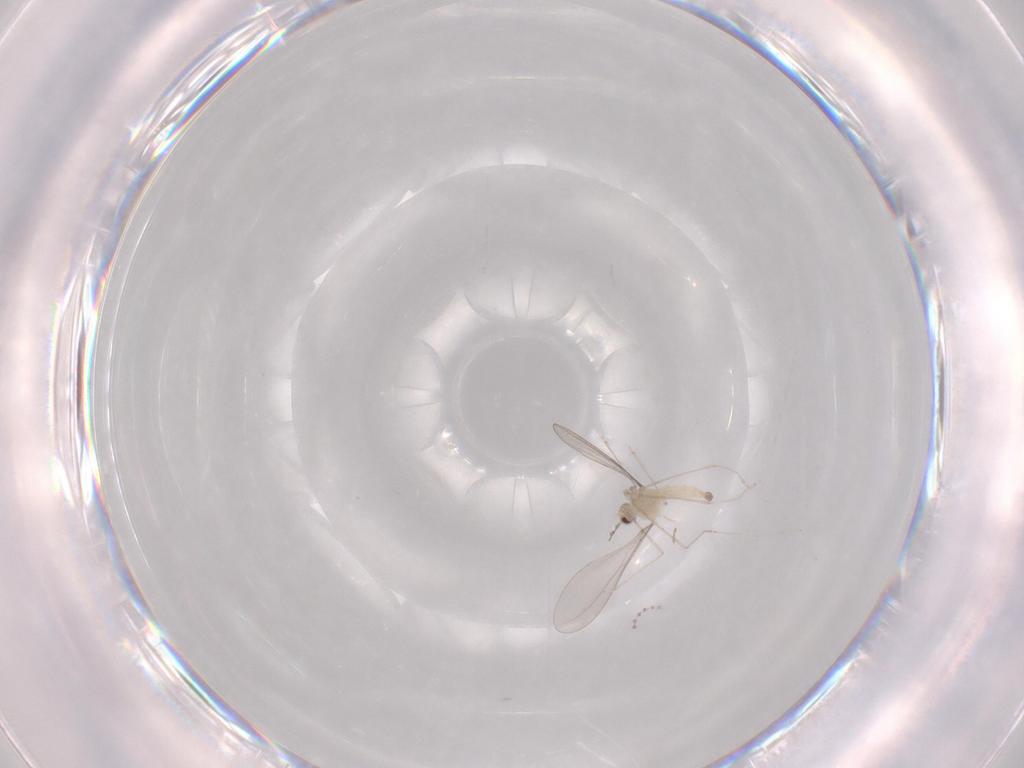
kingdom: Animalia
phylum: Arthropoda
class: Insecta
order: Diptera
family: Cecidomyiidae
